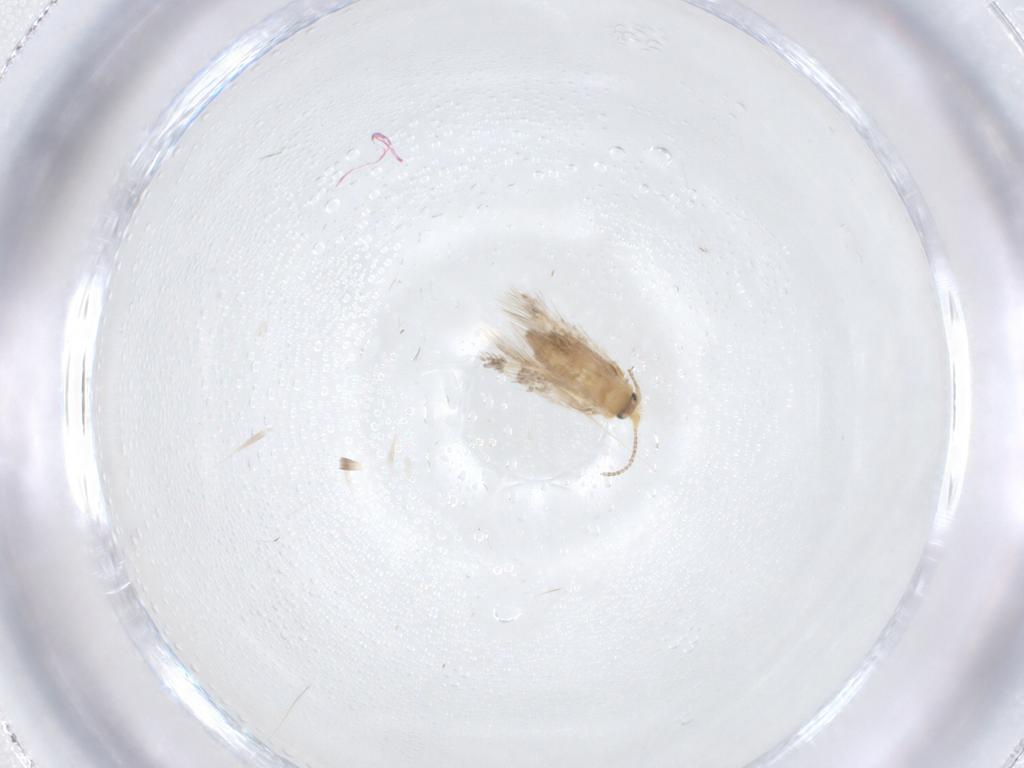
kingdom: Animalia
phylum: Arthropoda
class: Insecta
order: Lepidoptera
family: Nepticulidae
